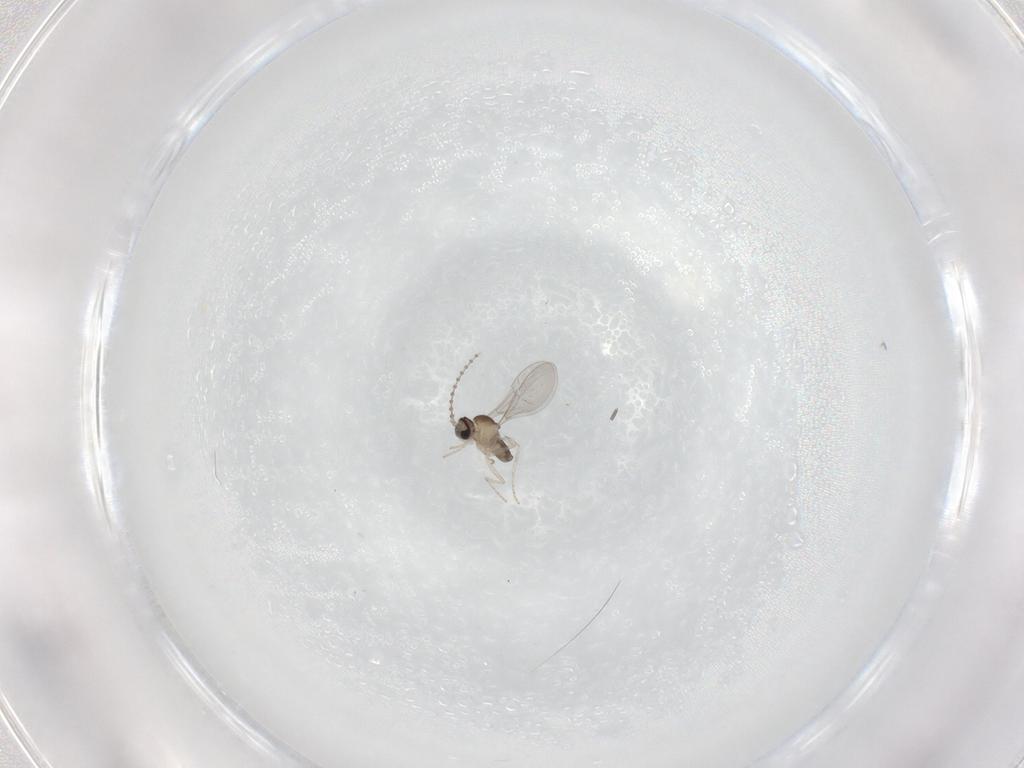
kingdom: Animalia
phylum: Arthropoda
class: Insecta
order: Diptera
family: Cecidomyiidae
